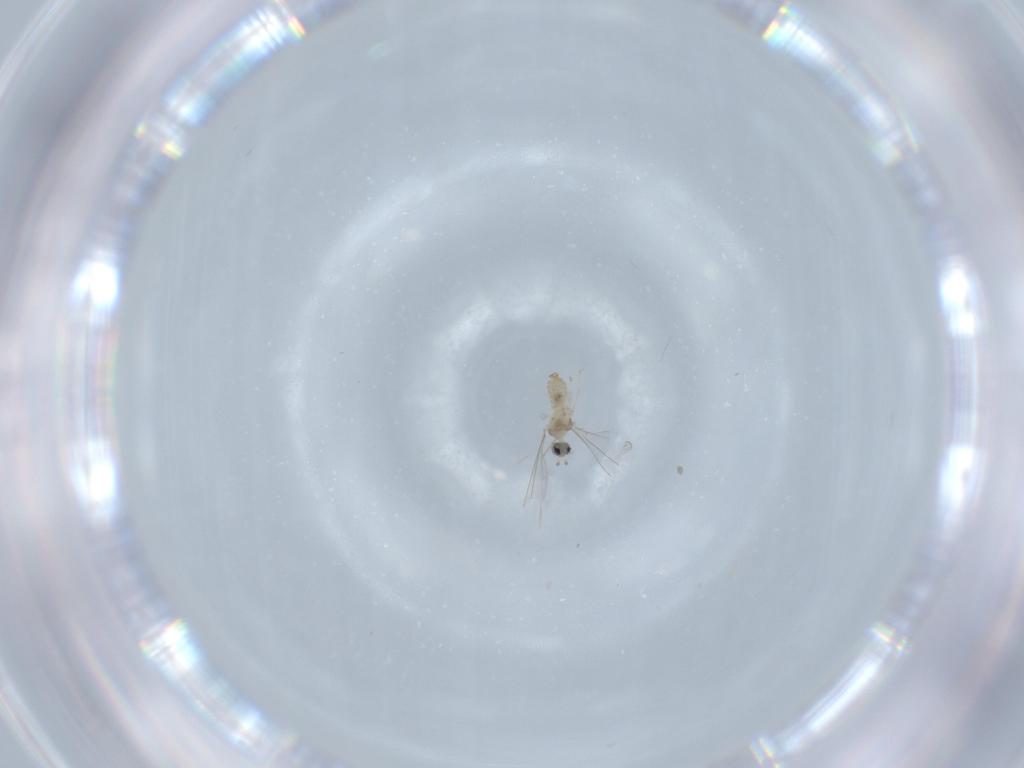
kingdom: Animalia
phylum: Arthropoda
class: Insecta
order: Diptera
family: Cecidomyiidae
